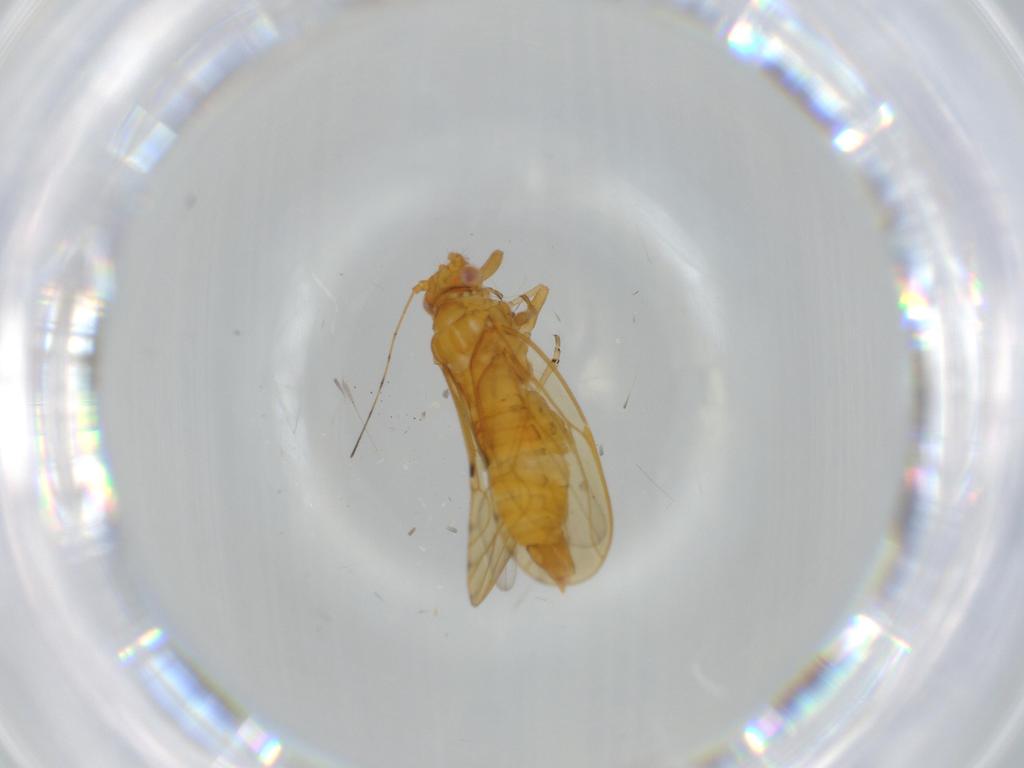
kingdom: Animalia
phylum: Arthropoda
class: Insecta
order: Hemiptera
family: Psylloidea_incertae_sedis
